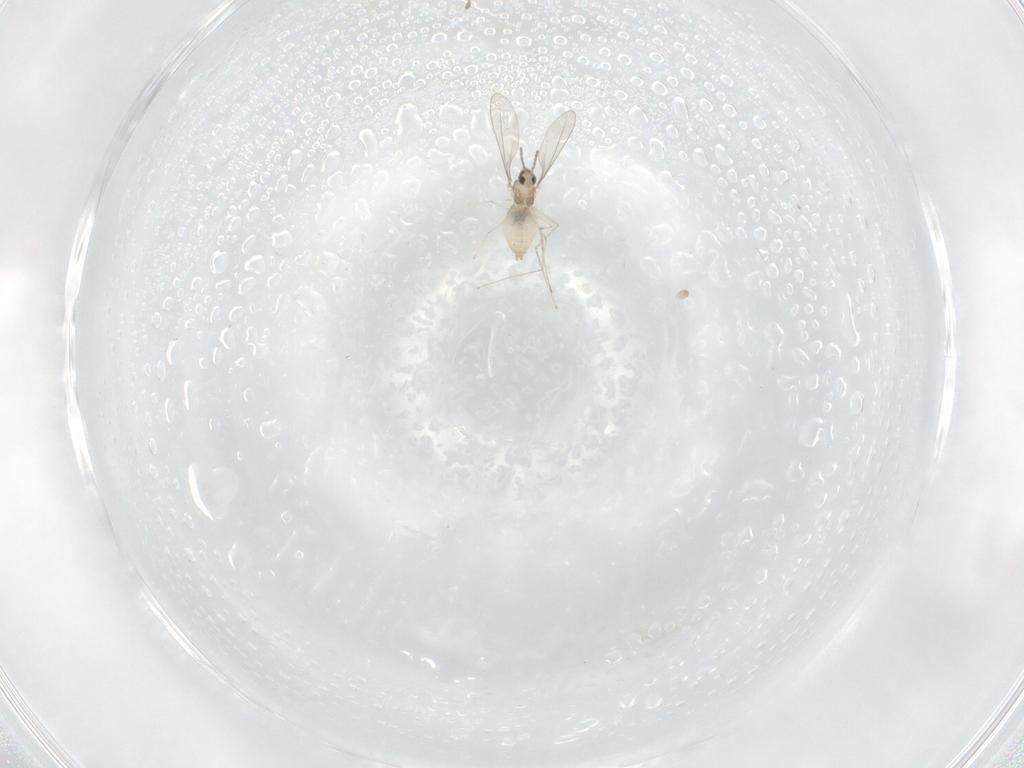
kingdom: Animalia
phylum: Arthropoda
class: Insecta
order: Diptera
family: Cecidomyiidae
